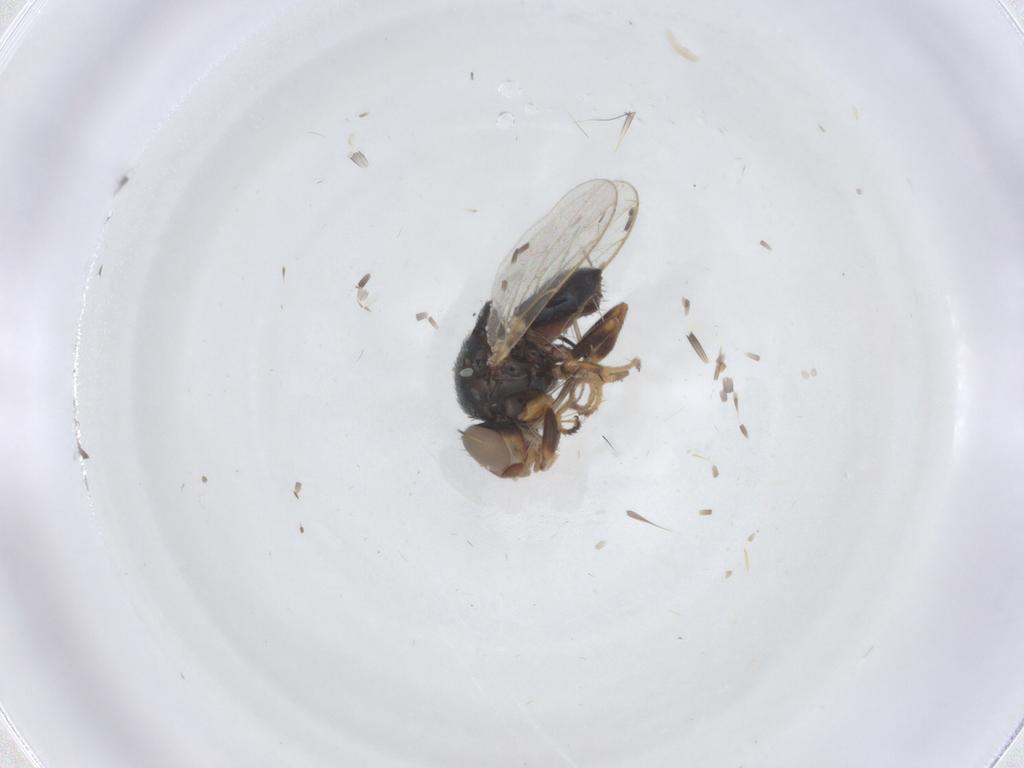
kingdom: Animalia
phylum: Arthropoda
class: Insecta
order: Diptera
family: Chloropidae
